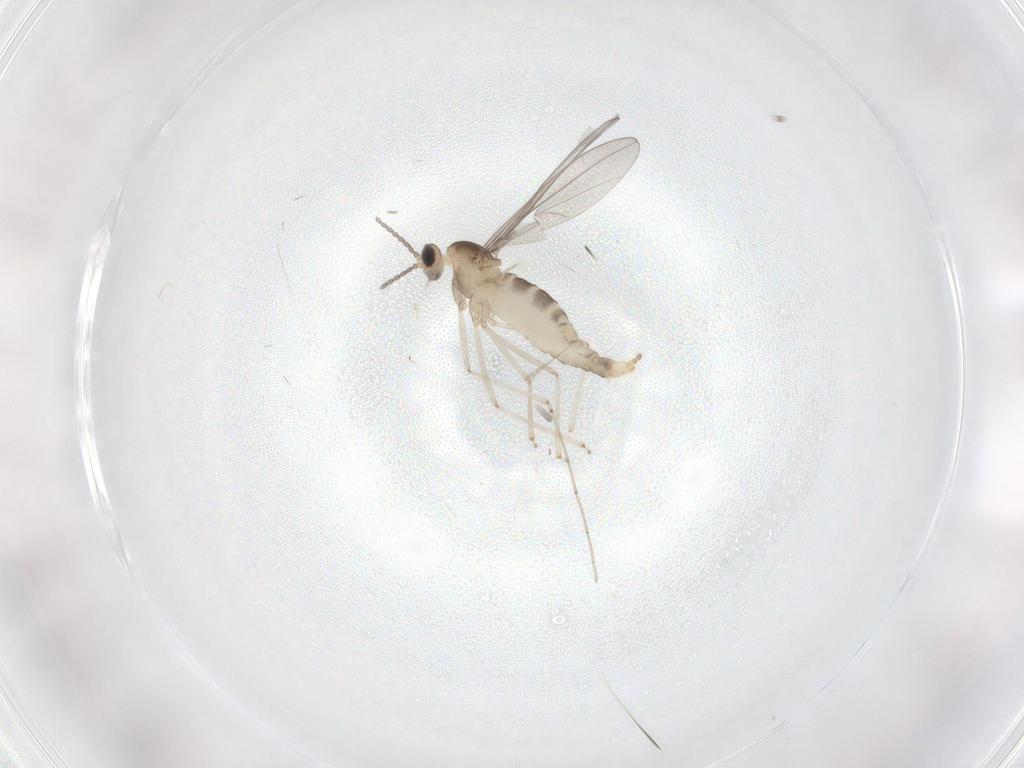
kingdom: Animalia
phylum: Arthropoda
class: Insecta
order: Diptera
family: Cecidomyiidae
